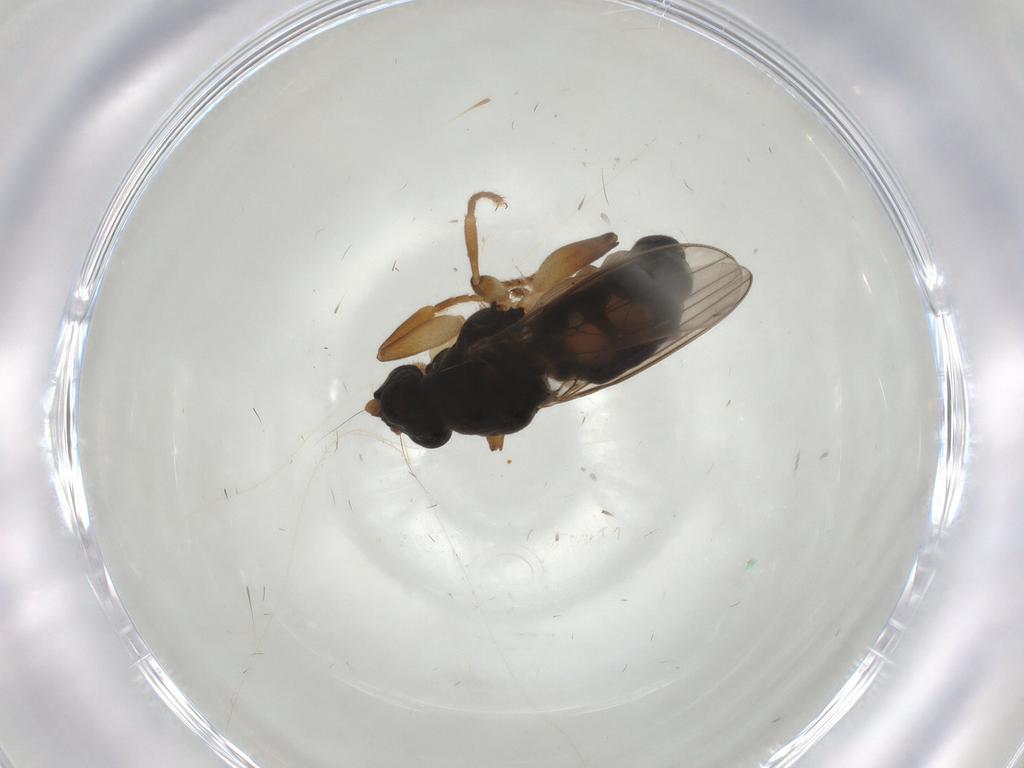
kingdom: Animalia
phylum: Arthropoda
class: Insecta
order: Diptera
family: Sphaeroceridae
